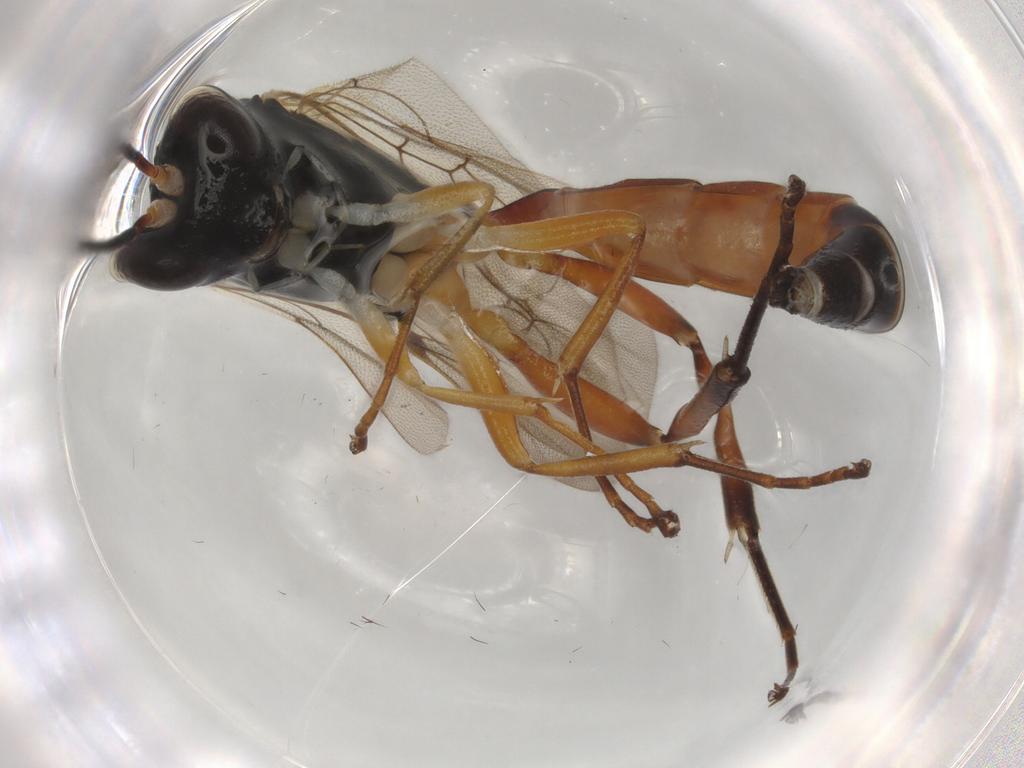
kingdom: Animalia
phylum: Arthropoda
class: Insecta
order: Hymenoptera
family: Ichneumonidae
